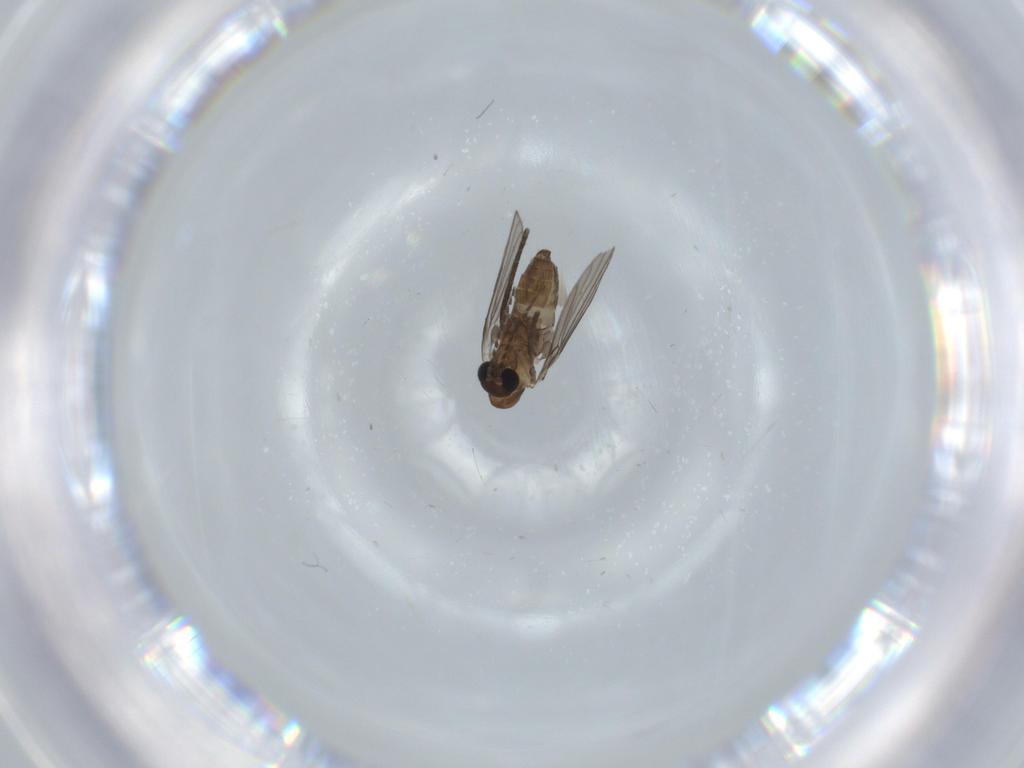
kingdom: Animalia
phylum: Arthropoda
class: Insecta
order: Diptera
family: Psychodidae
